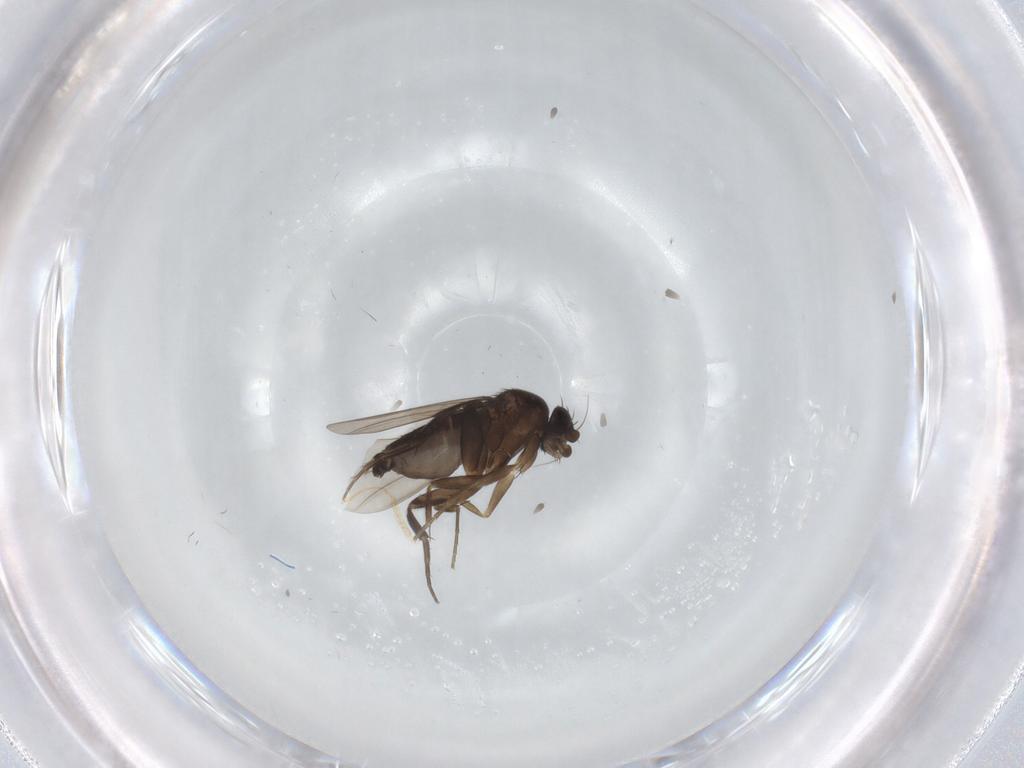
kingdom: Animalia
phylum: Arthropoda
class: Insecta
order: Diptera
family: Phoridae
